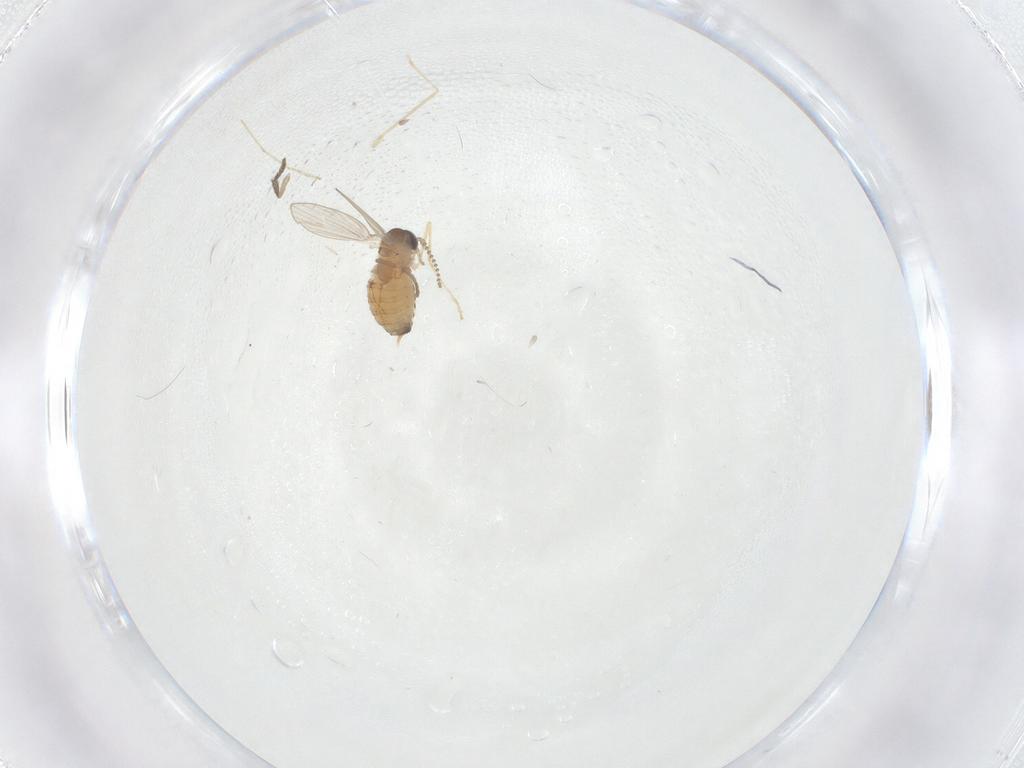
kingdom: Animalia
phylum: Arthropoda
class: Insecta
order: Diptera
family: Psychodidae
